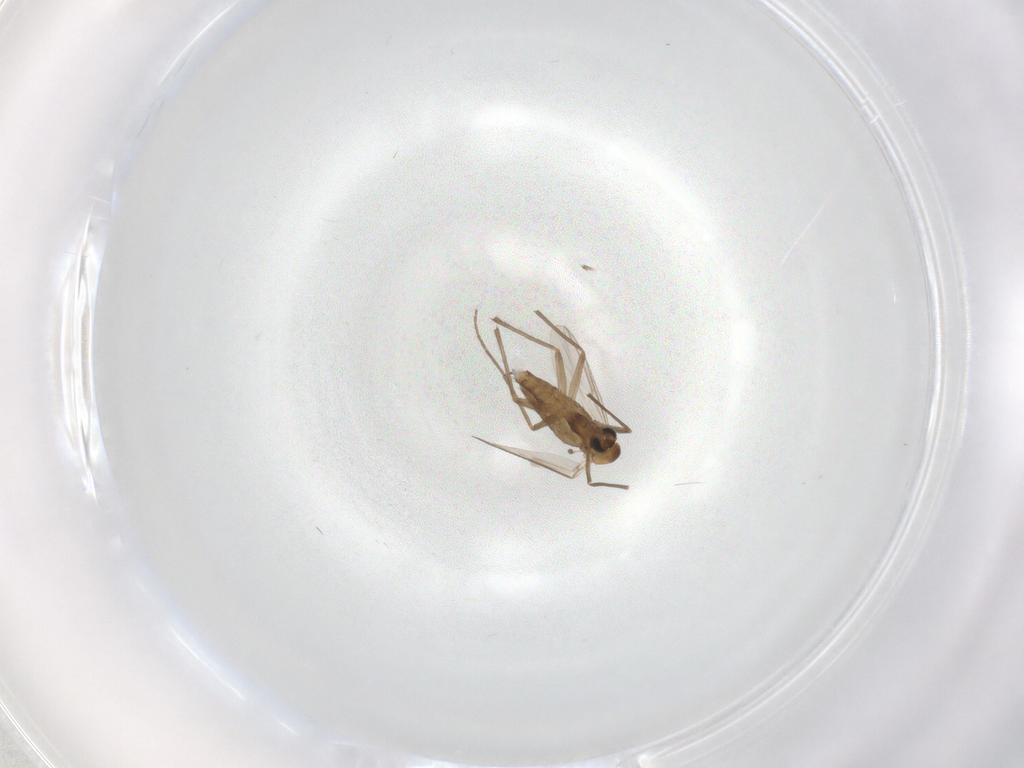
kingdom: Animalia
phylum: Arthropoda
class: Insecta
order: Diptera
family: Chironomidae
